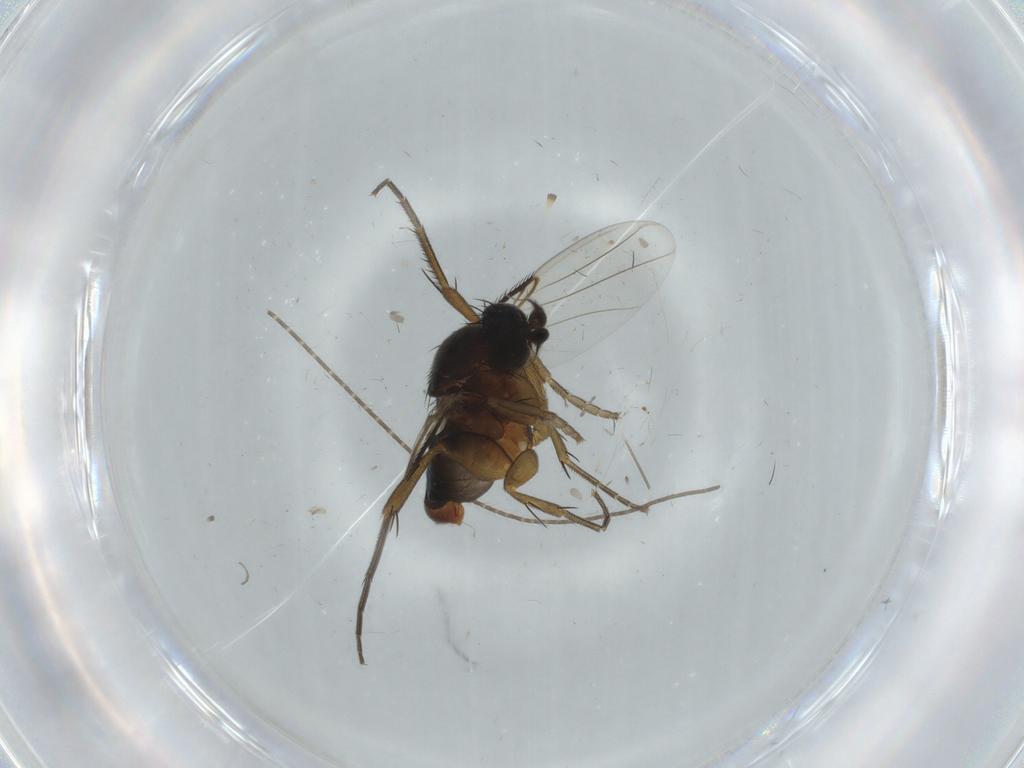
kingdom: Animalia
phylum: Arthropoda
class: Insecta
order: Diptera
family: Phoridae
